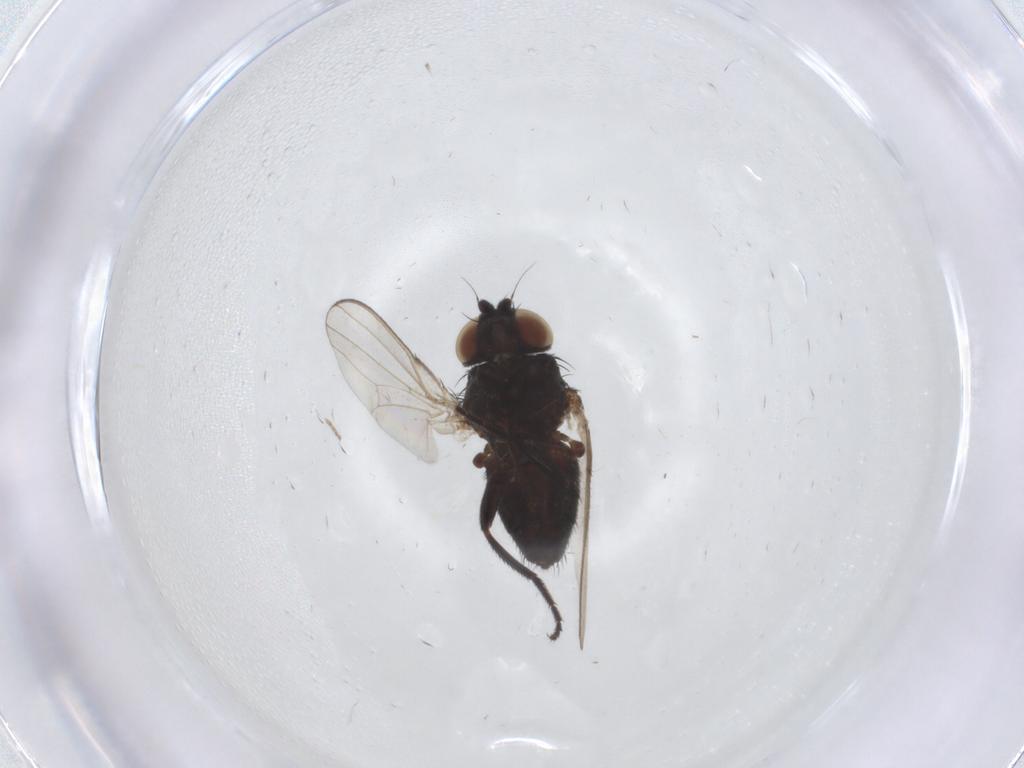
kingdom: Animalia
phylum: Arthropoda
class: Insecta
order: Diptera
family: Milichiidae
